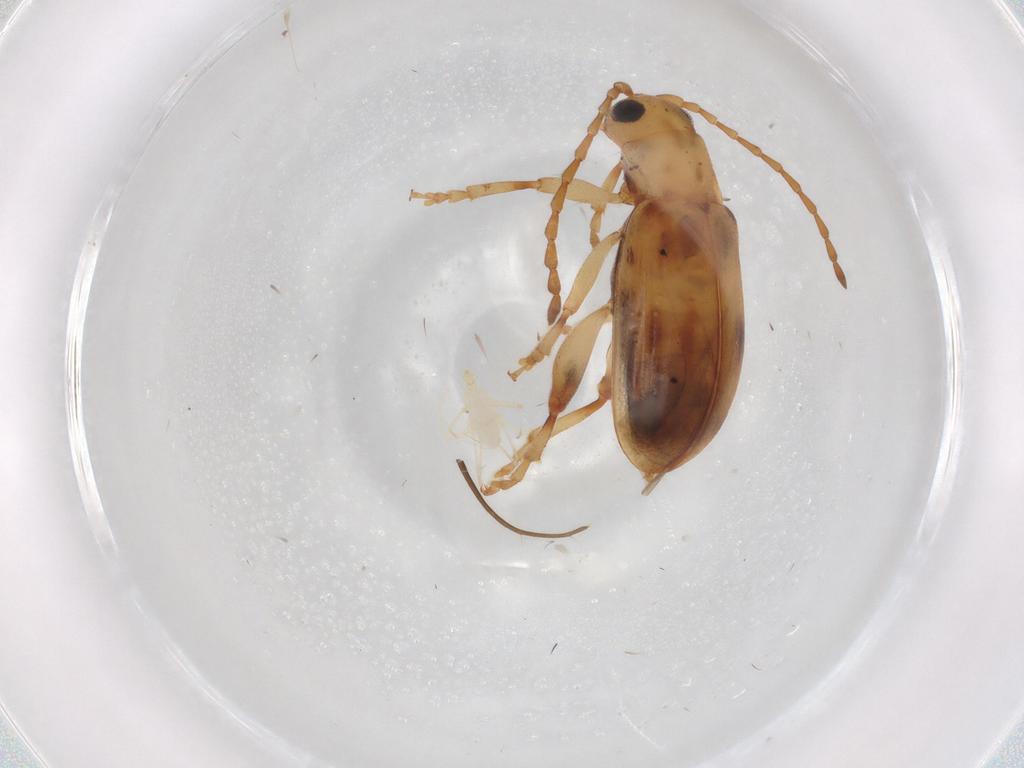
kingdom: Animalia
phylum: Arthropoda
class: Insecta
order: Coleoptera
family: Chrysomelidae
